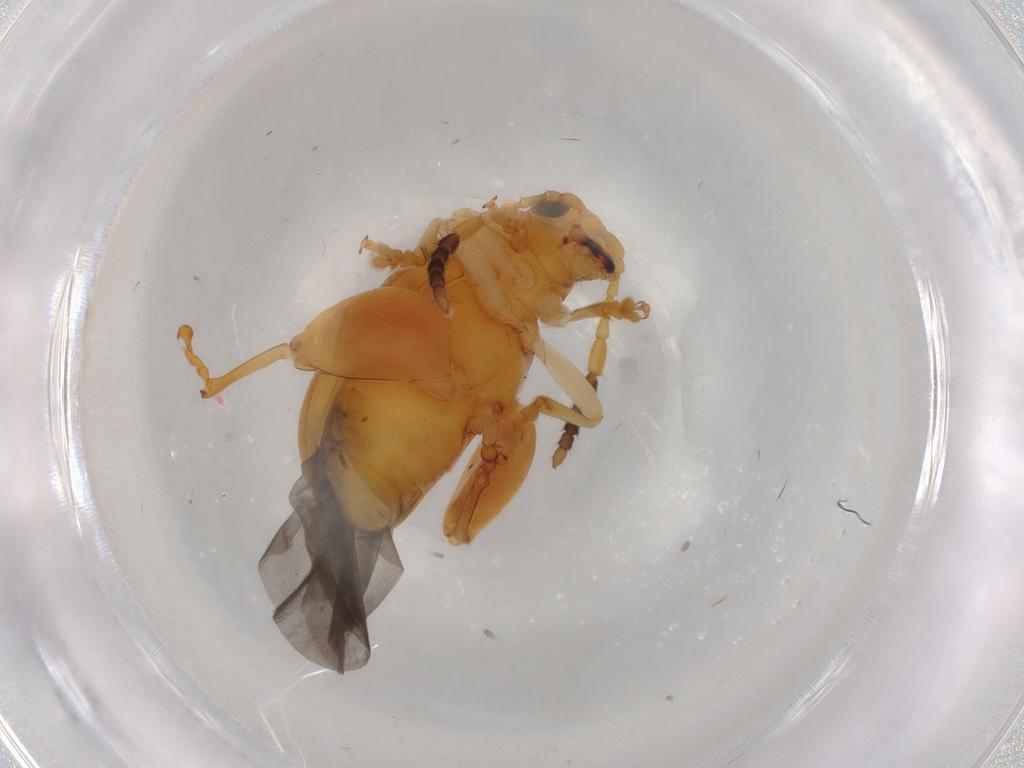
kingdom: Animalia
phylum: Arthropoda
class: Insecta
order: Coleoptera
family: Chrysomelidae
